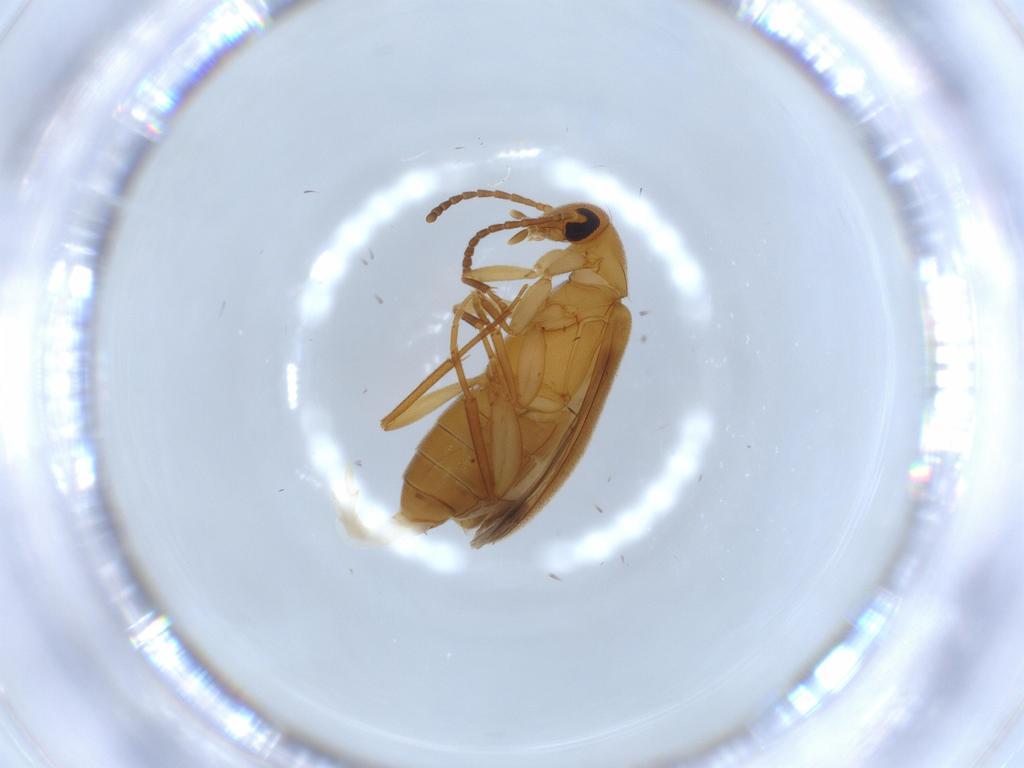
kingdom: Animalia
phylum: Arthropoda
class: Insecta
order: Coleoptera
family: Scraptiidae
